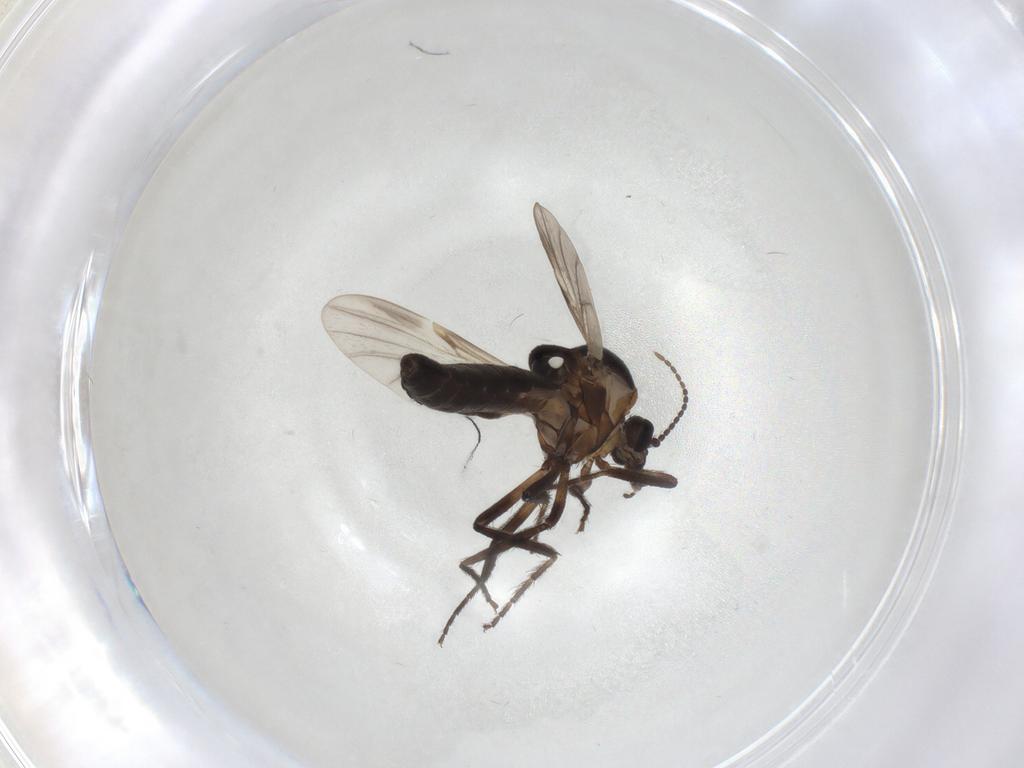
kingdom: Animalia
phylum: Arthropoda
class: Insecta
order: Diptera
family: Ceratopogonidae
